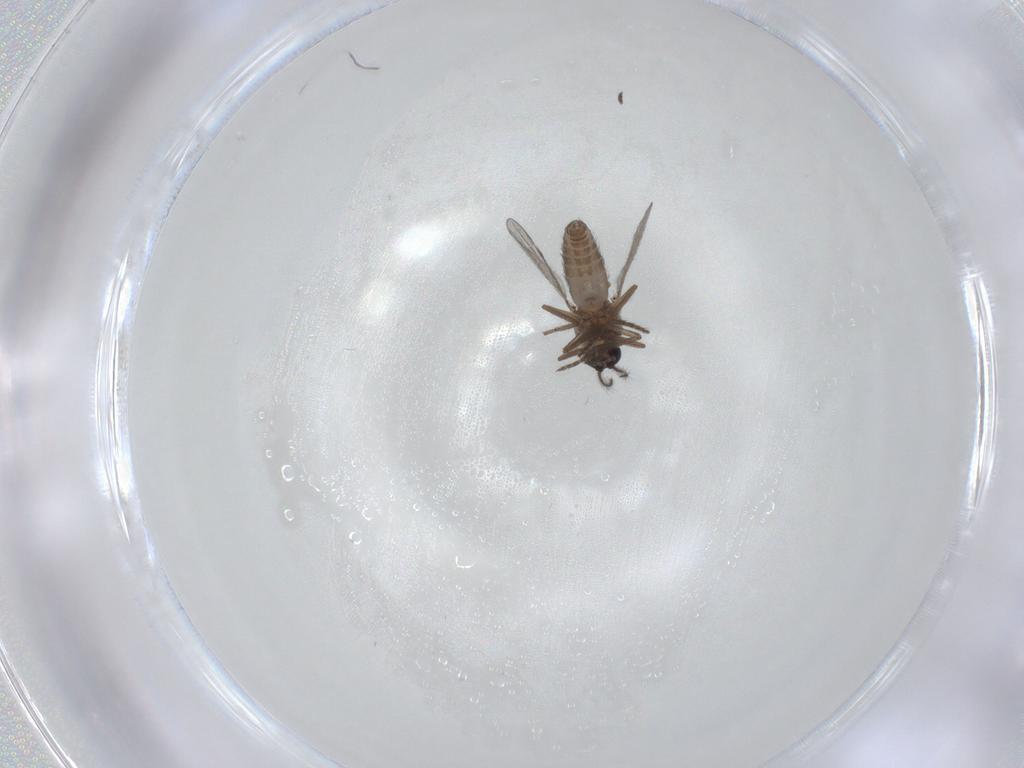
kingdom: Animalia
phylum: Arthropoda
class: Insecta
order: Diptera
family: Ceratopogonidae
